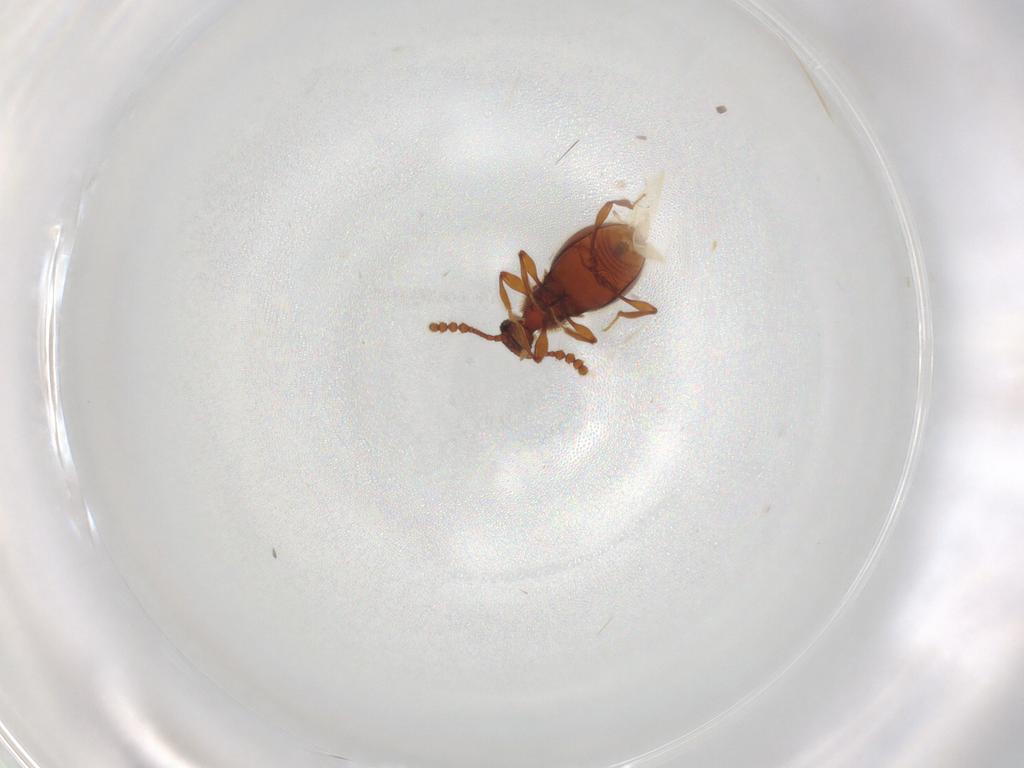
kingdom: Animalia
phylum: Arthropoda
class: Insecta
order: Coleoptera
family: Staphylinidae
